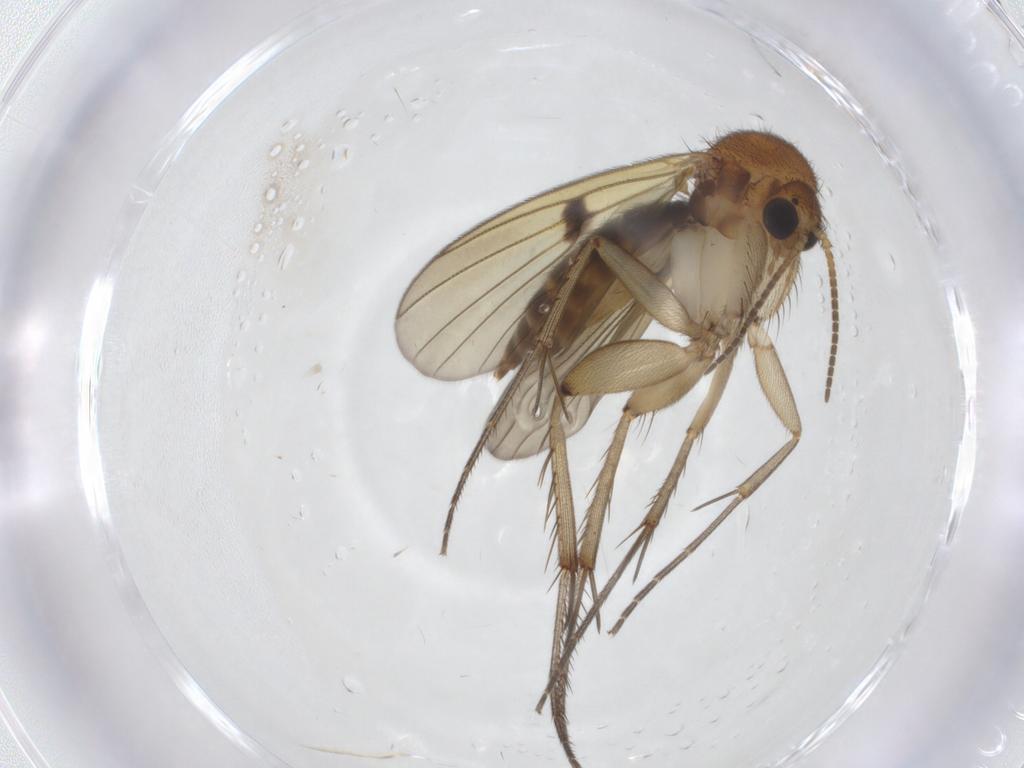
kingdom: Animalia
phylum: Arthropoda
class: Insecta
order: Diptera
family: Mycetophilidae
